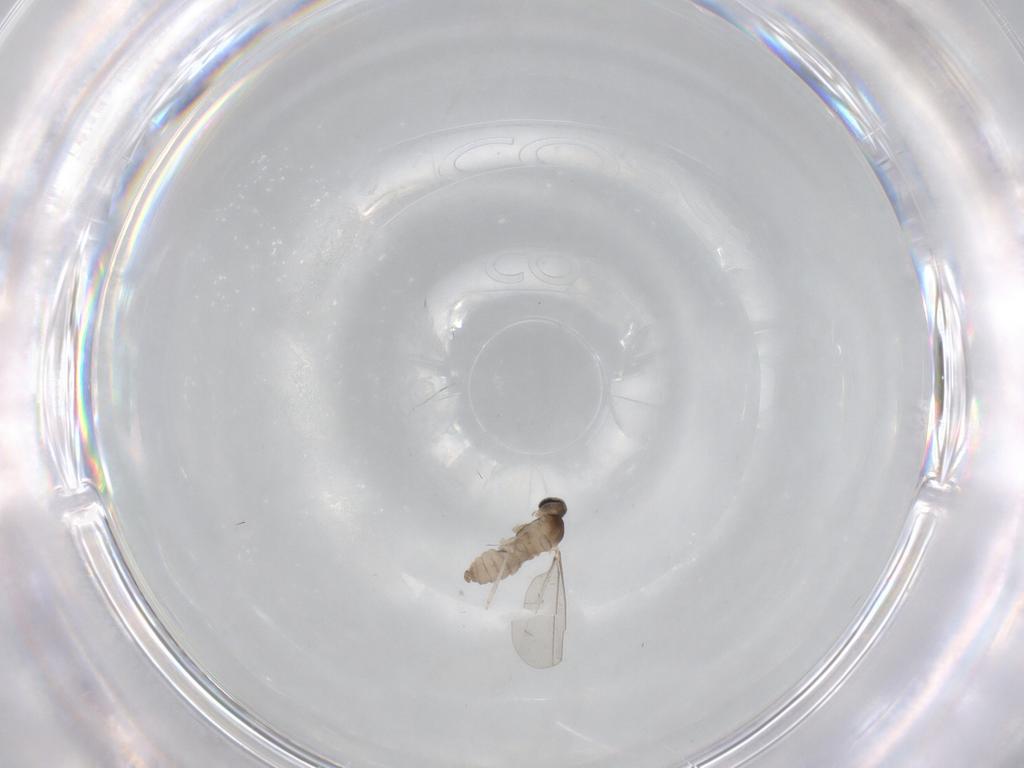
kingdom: Animalia
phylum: Arthropoda
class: Insecta
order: Diptera
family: Cecidomyiidae
